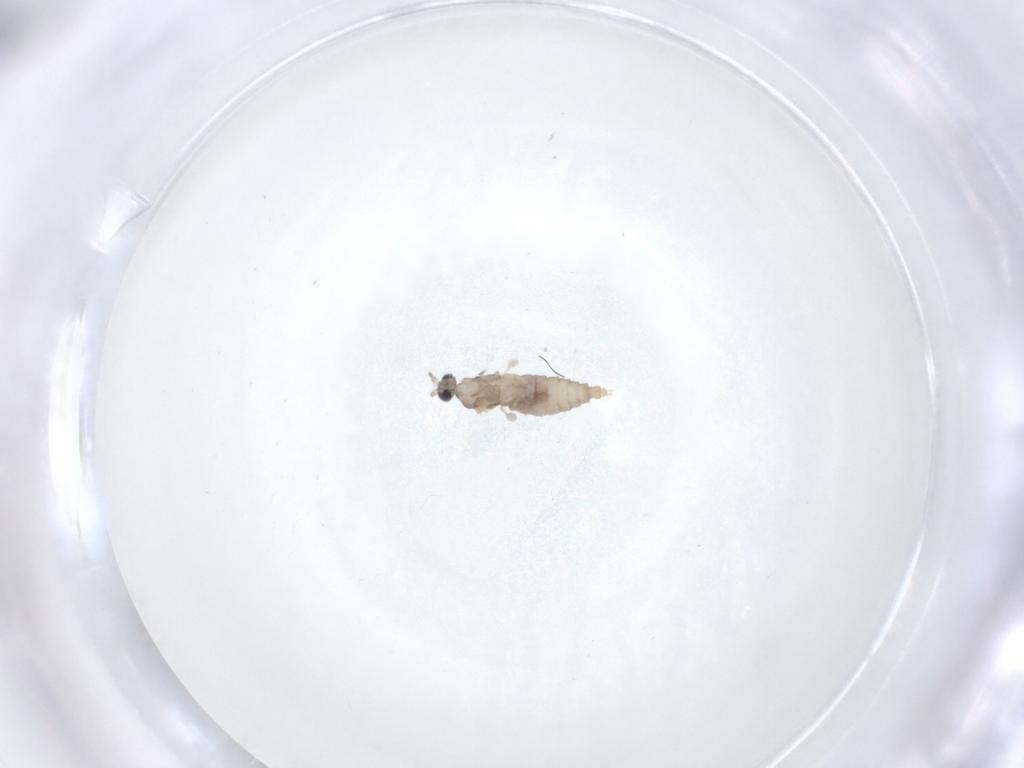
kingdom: Animalia
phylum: Arthropoda
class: Insecta
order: Diptera
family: Cecidomyiidae
